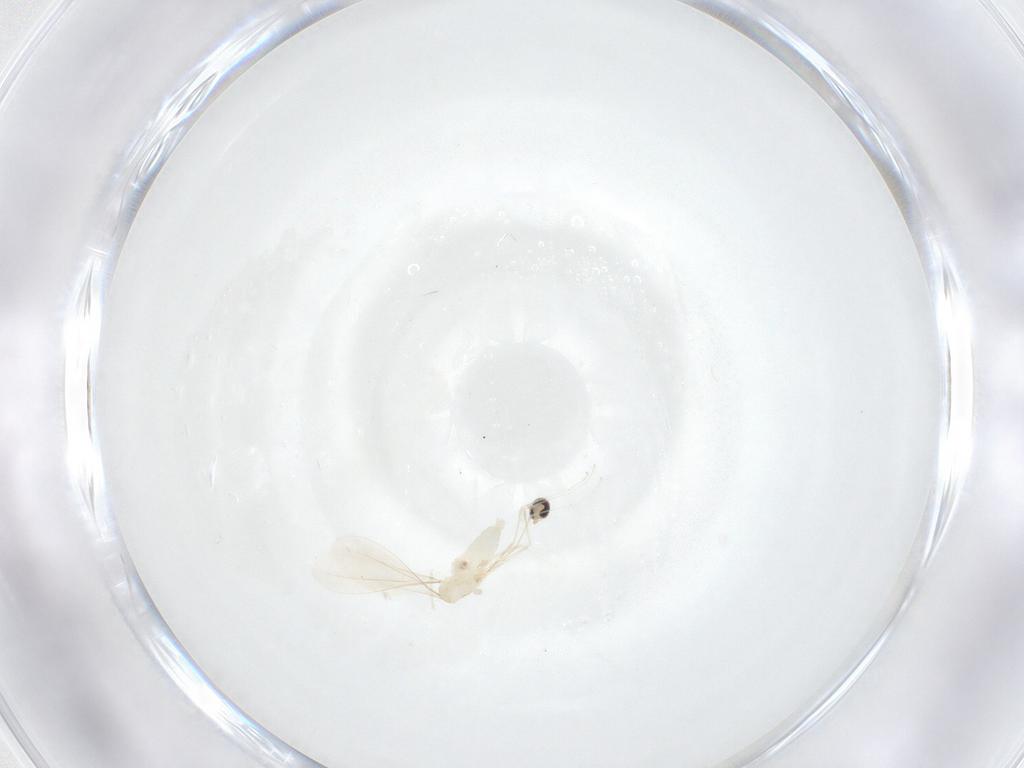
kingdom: Animalia
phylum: Arthropoda
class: Insecta
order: Diptera
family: Cecidomyiidae
